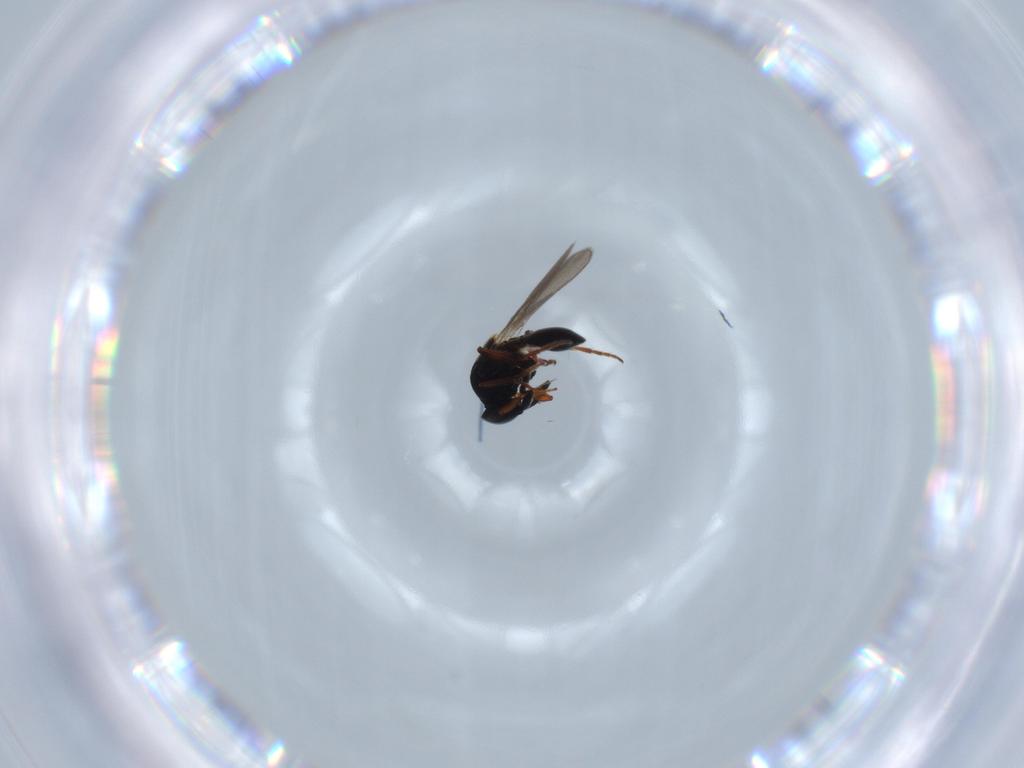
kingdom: Animalia
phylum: Arthropoda
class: Insecta
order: Hymenoptera
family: Platygastridae
